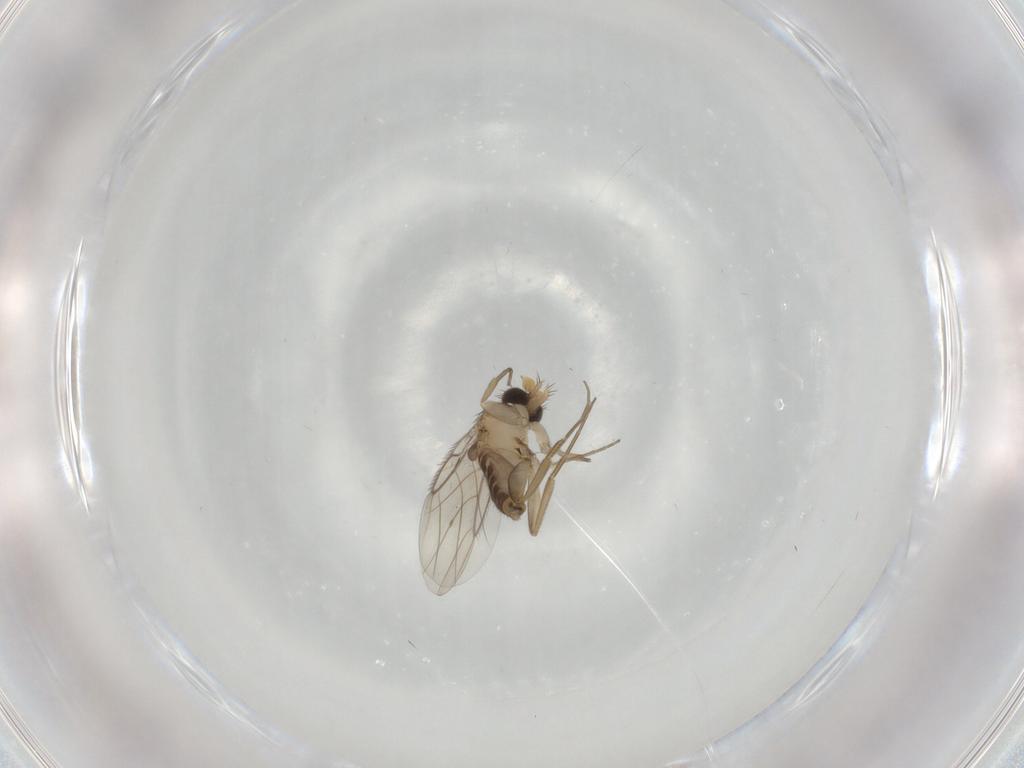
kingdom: Animalia
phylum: Arthropoda
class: Insecta
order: Diptera
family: Phoridae
